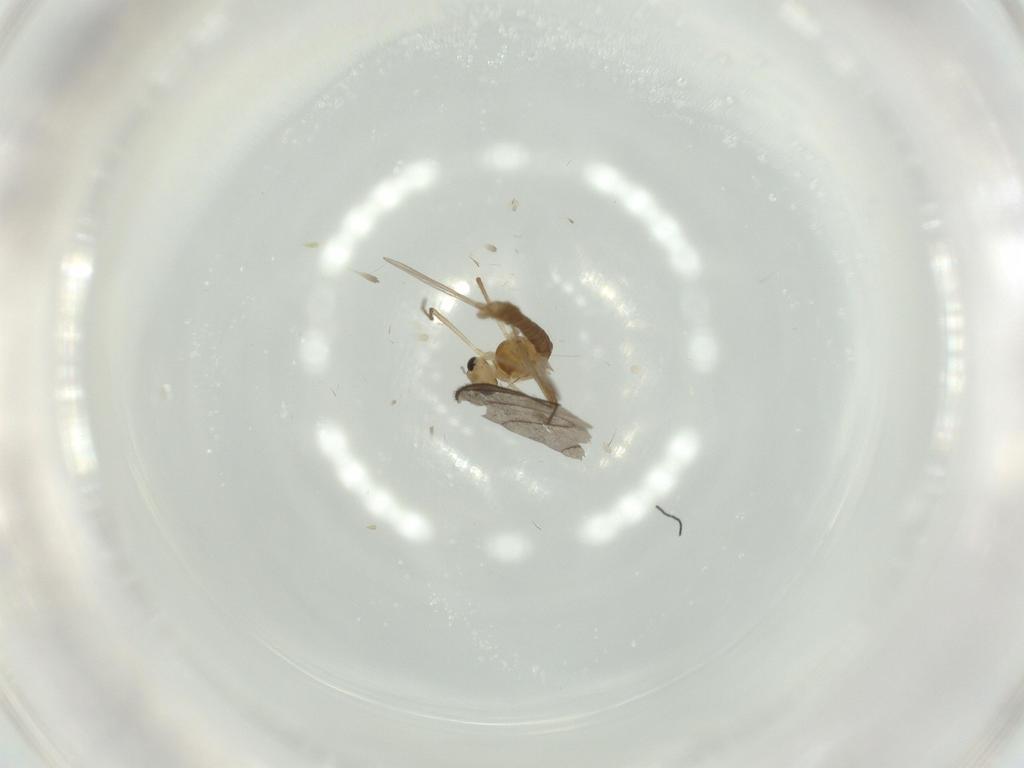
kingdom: Animalia
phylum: Arthropoda
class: Insecta
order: Diptera
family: Chironomidae
